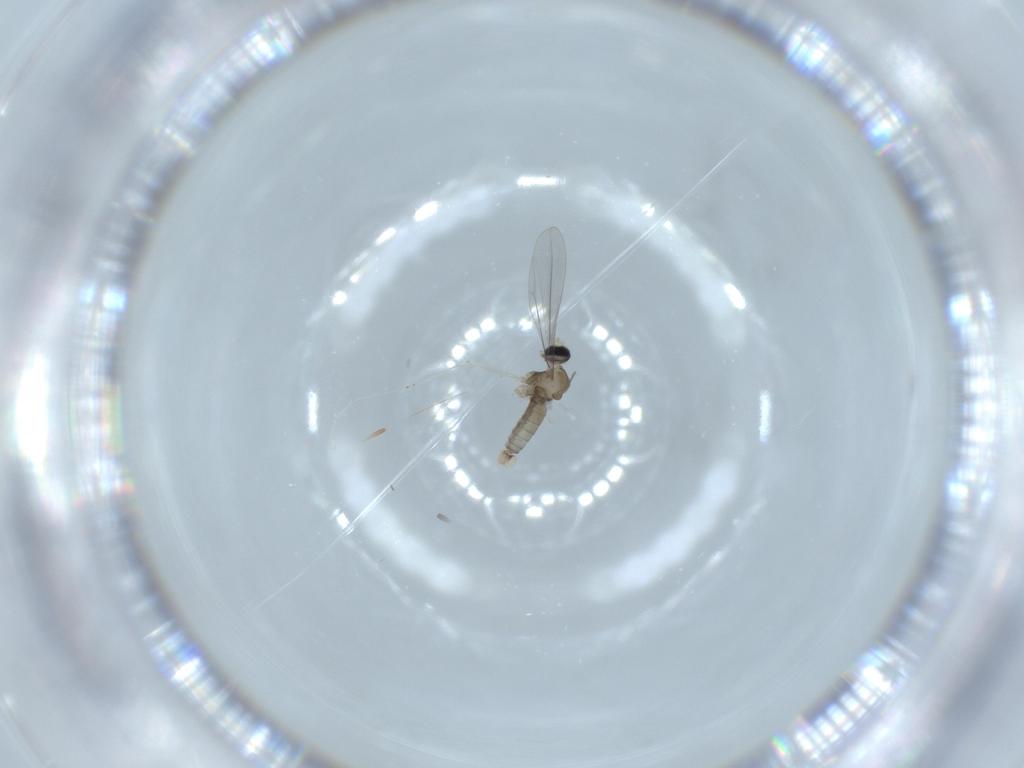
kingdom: Animalia
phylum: Arthropoda
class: Insecta
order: Diptera
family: Cecidomyiidae
